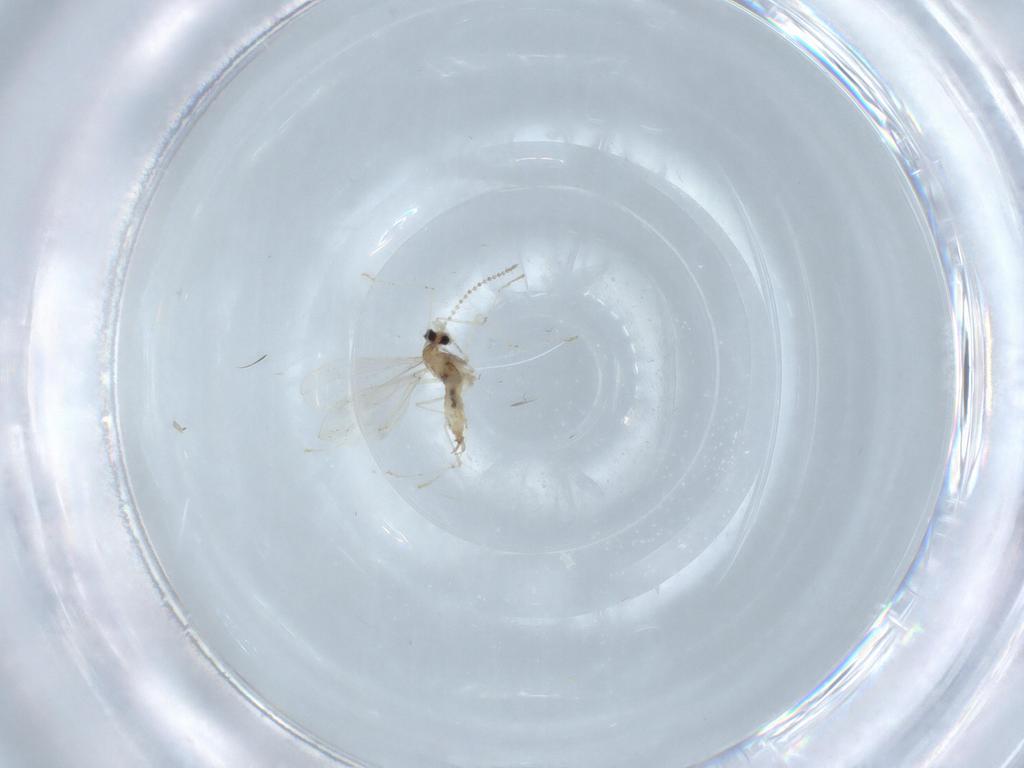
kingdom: Animalia
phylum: Arthropoda
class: Insecta
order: Diptera
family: Cecidomyiidae
